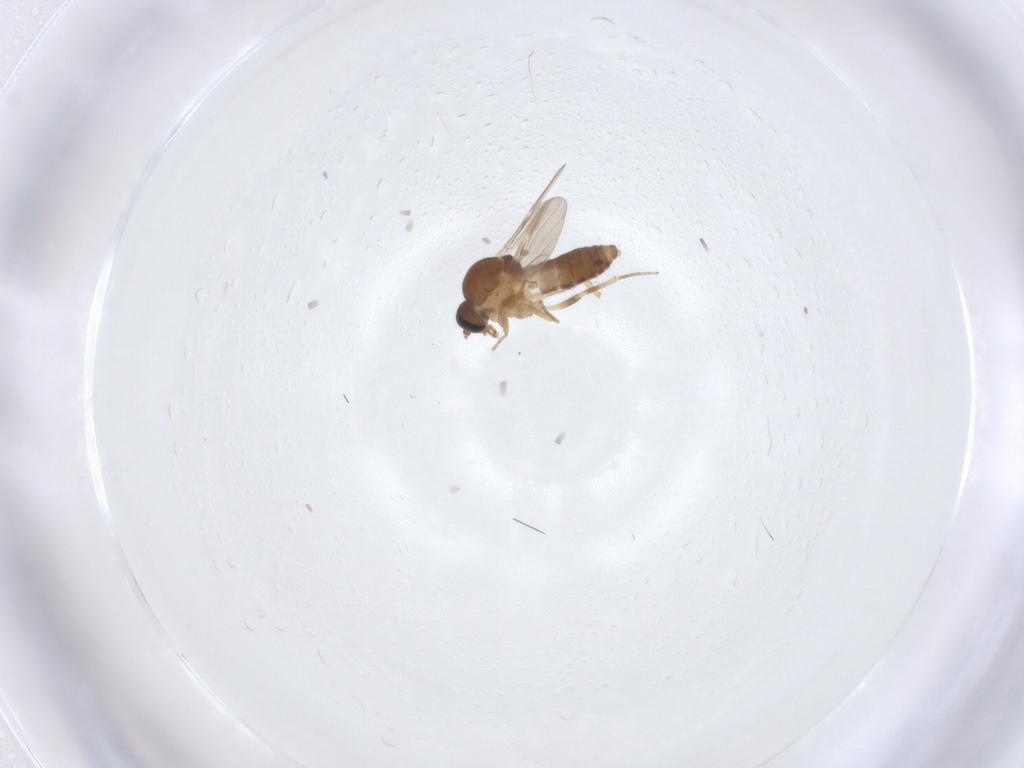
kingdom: Animalia
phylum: Arthropoda
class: Insecta
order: Diptera
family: Ceratopogonidae
